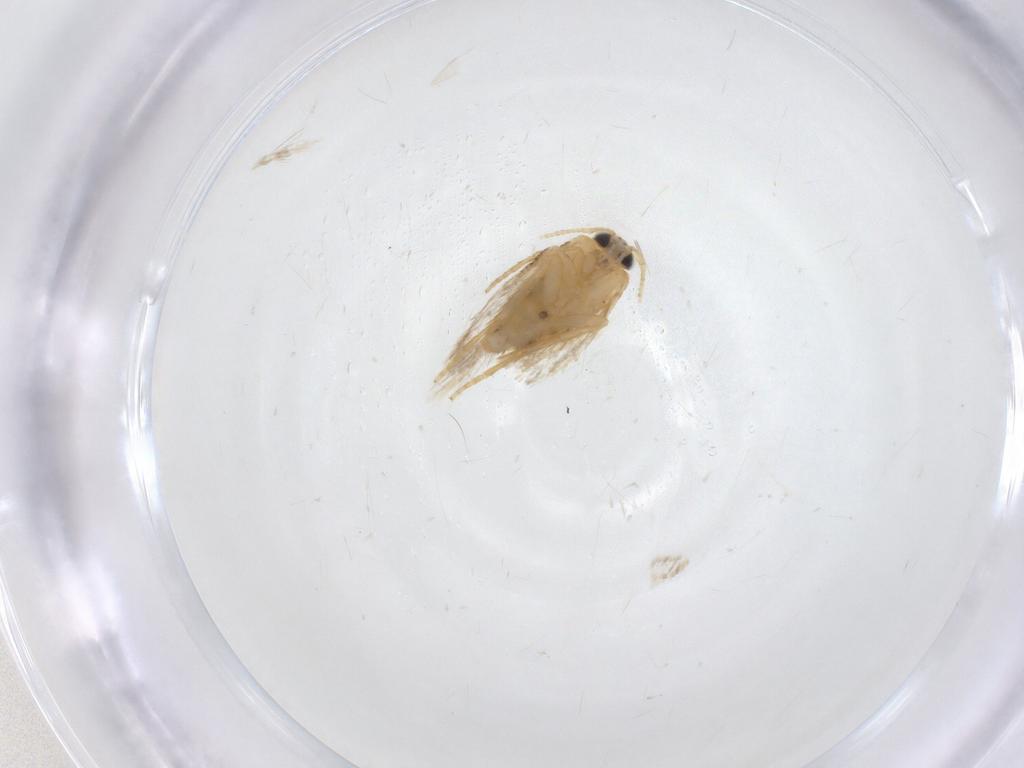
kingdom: Animalia
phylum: Arthropoda
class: Insecta
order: Lepidoptera
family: Nepticulidae
